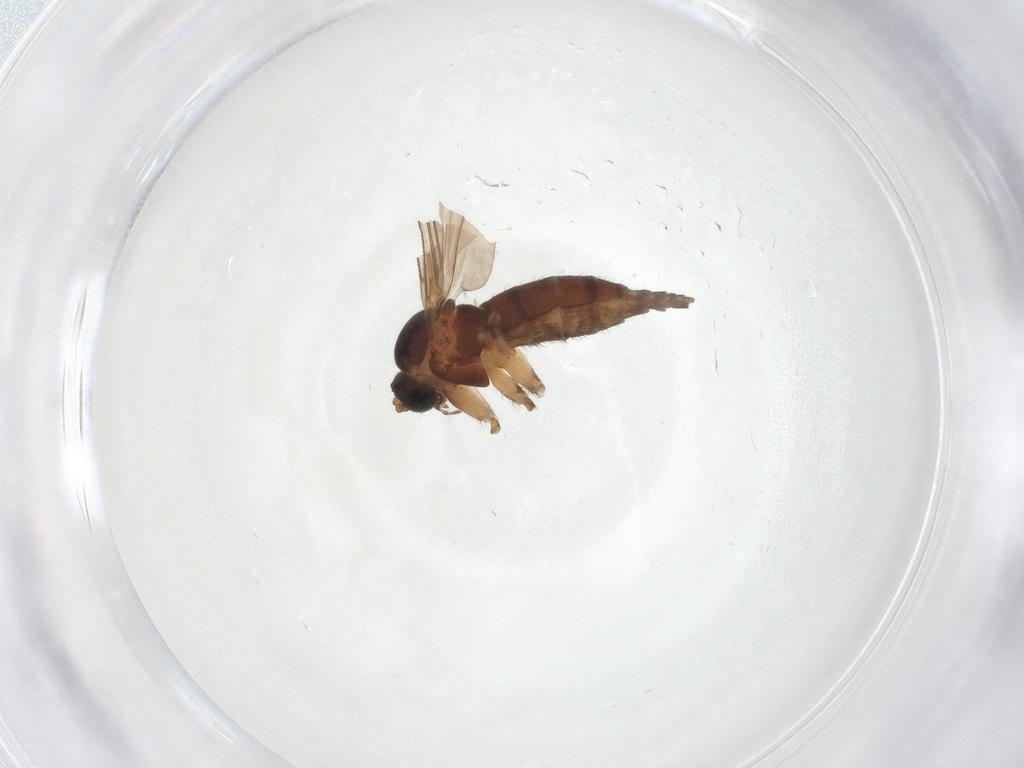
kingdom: Animalia
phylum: Arthropoda
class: Insecta
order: Diptera
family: Sciaridae
